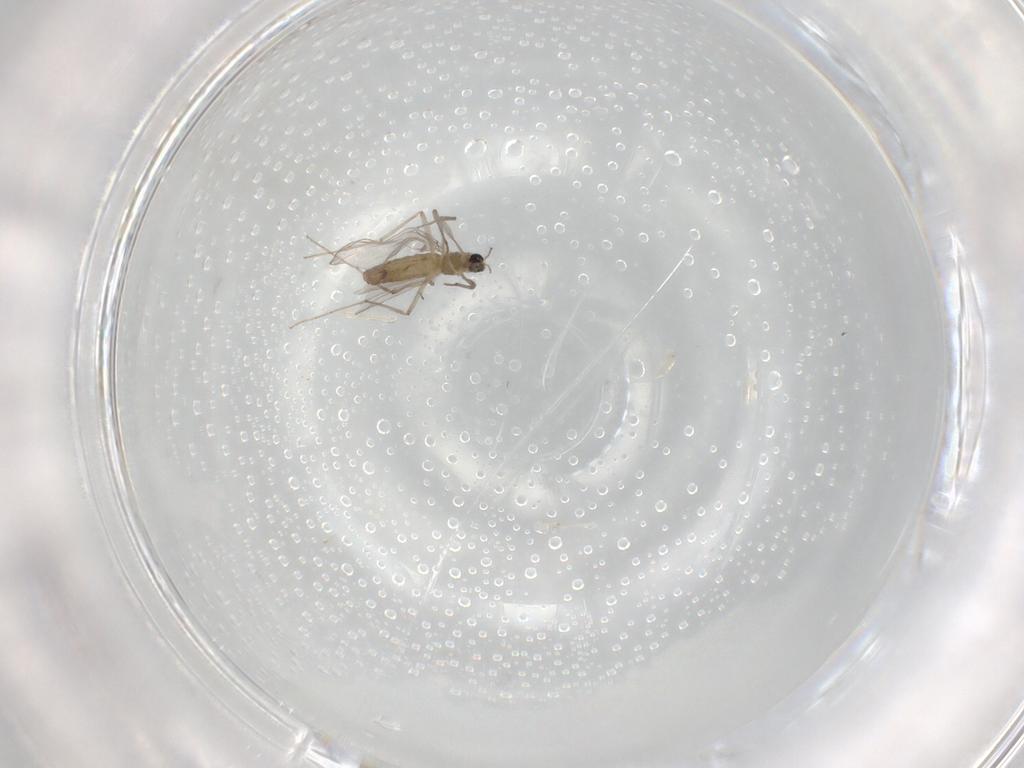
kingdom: Animalia
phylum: Arthropoda
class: Insecta
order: Diptera
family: Chironomidae
